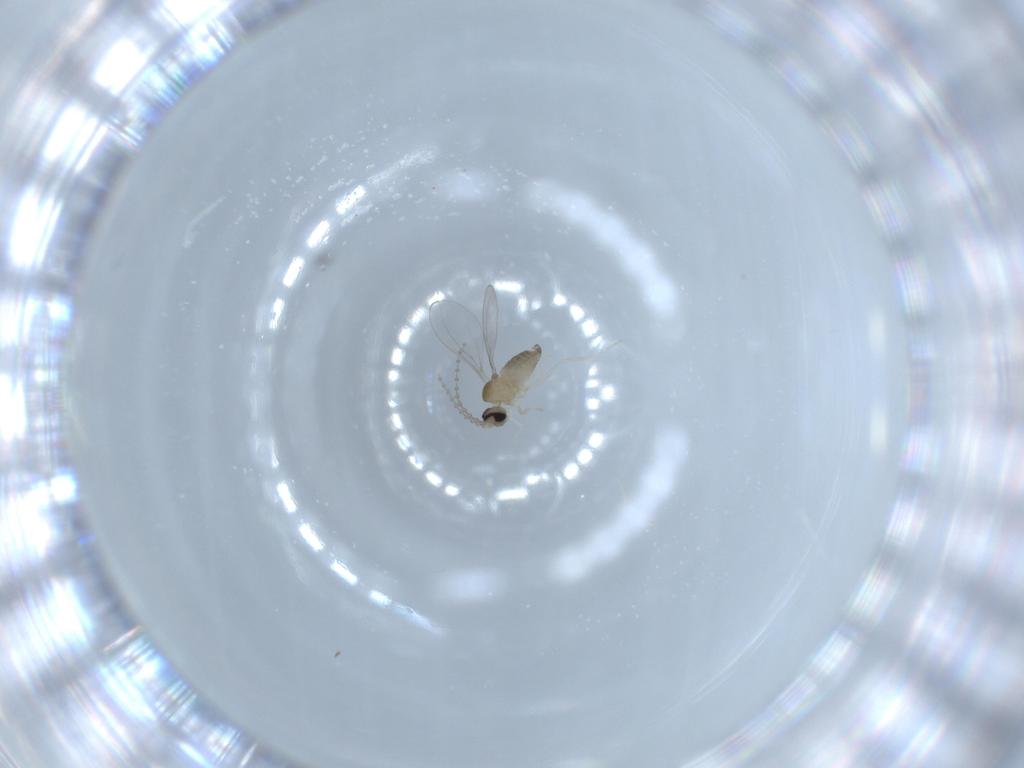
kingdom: Animalia
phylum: Arthropoda
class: Insecta
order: Diptera
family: Cecidomyiidae
